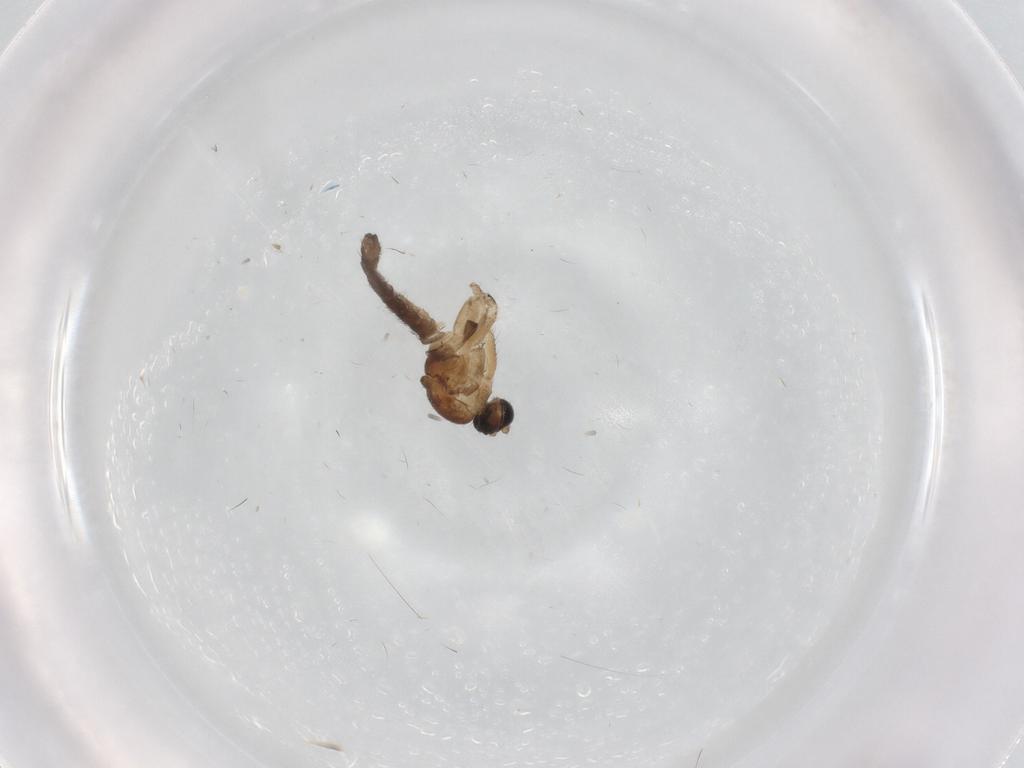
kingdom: Animalia
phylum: Arthropoda
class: Insecta
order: Diptera
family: Sciaridae
